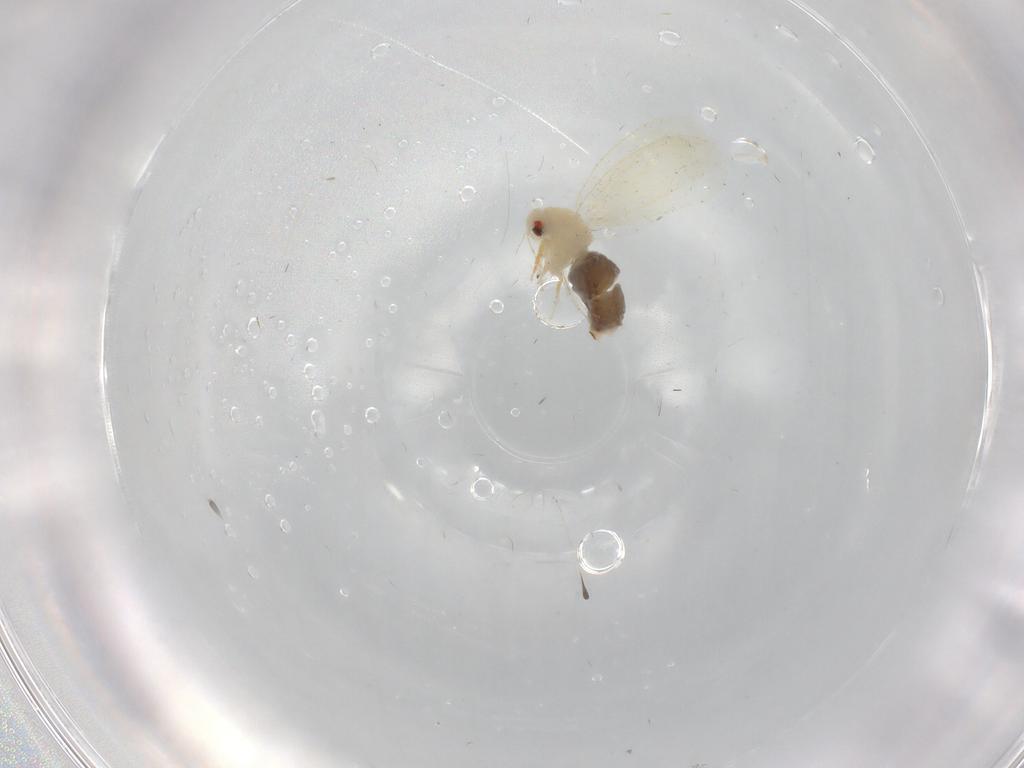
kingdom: Animalia
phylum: Arthropoda
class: Insecta
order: Hemiptera
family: Aleyrodidae
